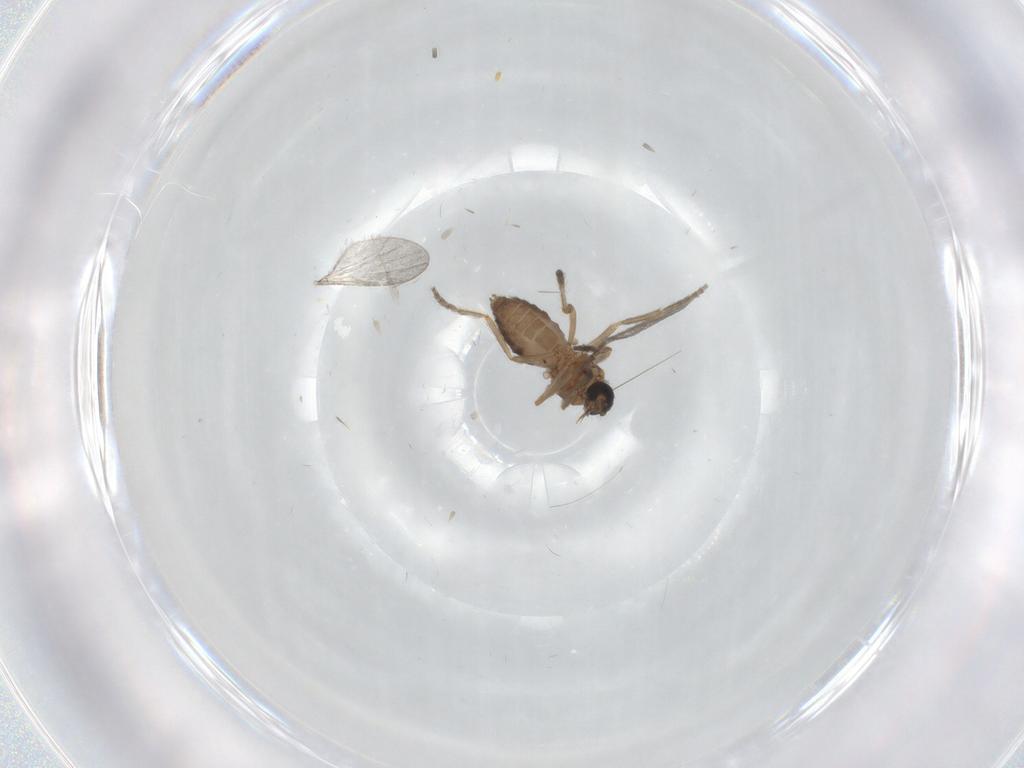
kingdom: Animalia
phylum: Arthropoda
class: Insecta
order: Diptera
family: Ceratopogonidae
